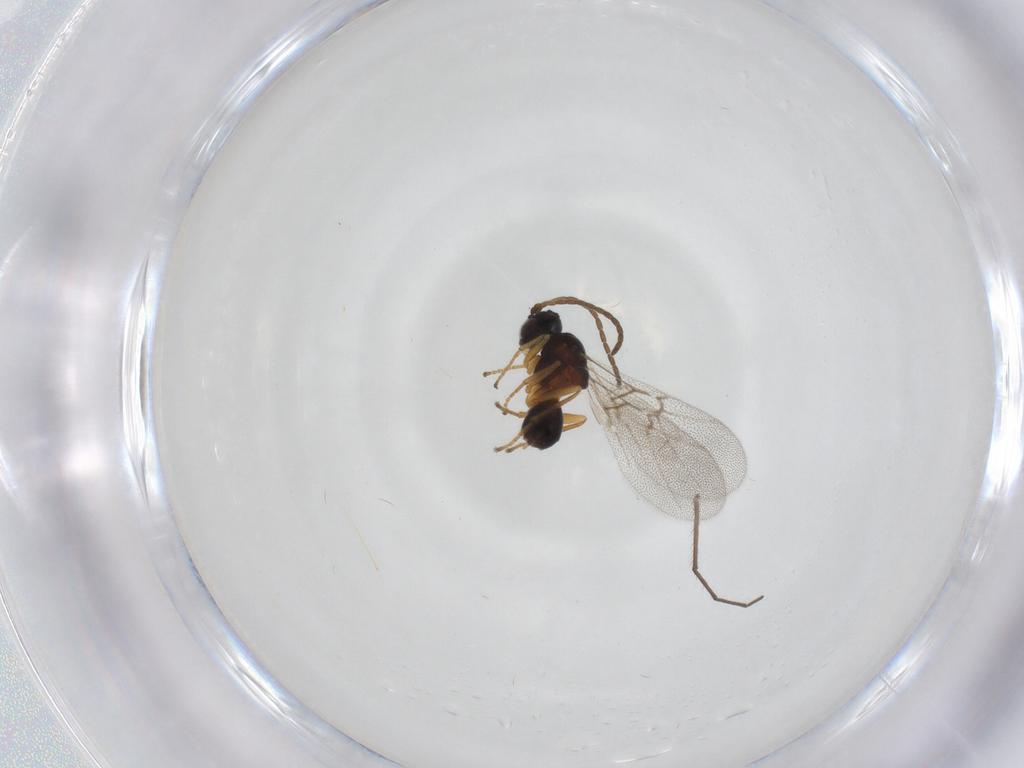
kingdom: Animalia
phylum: Arthropoda
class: Insecta
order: Hymenoptera
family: Cynipidae
